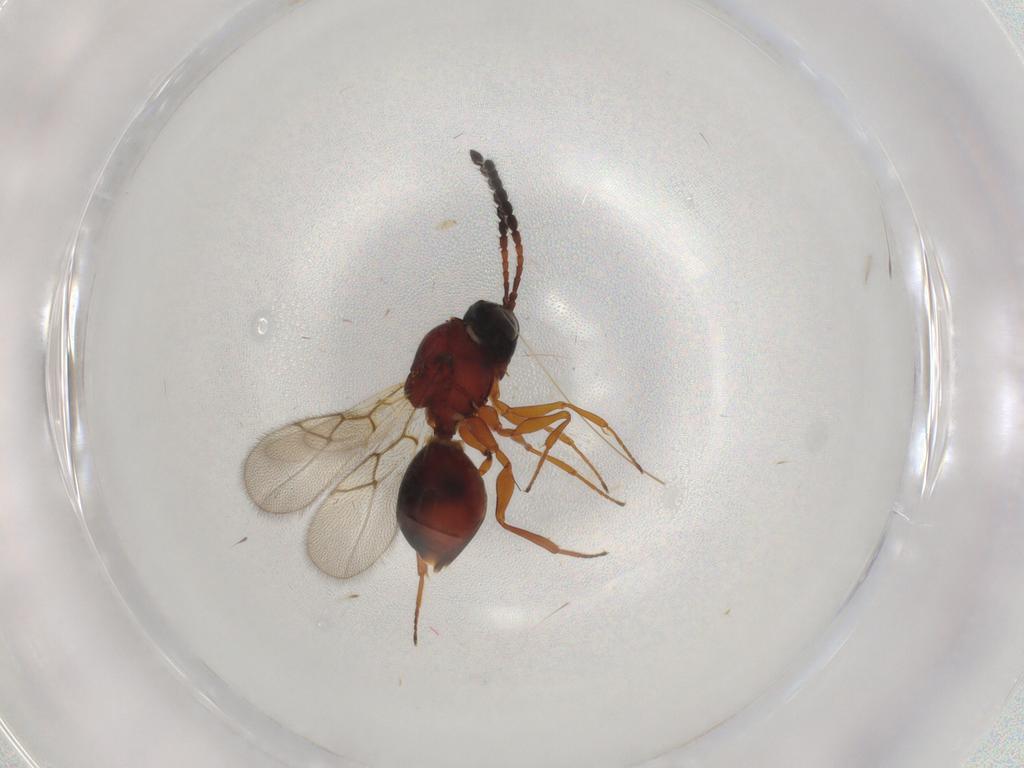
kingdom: Animalia
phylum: Arthropoda
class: Insecta
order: Hymenoptera
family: Figitidae
